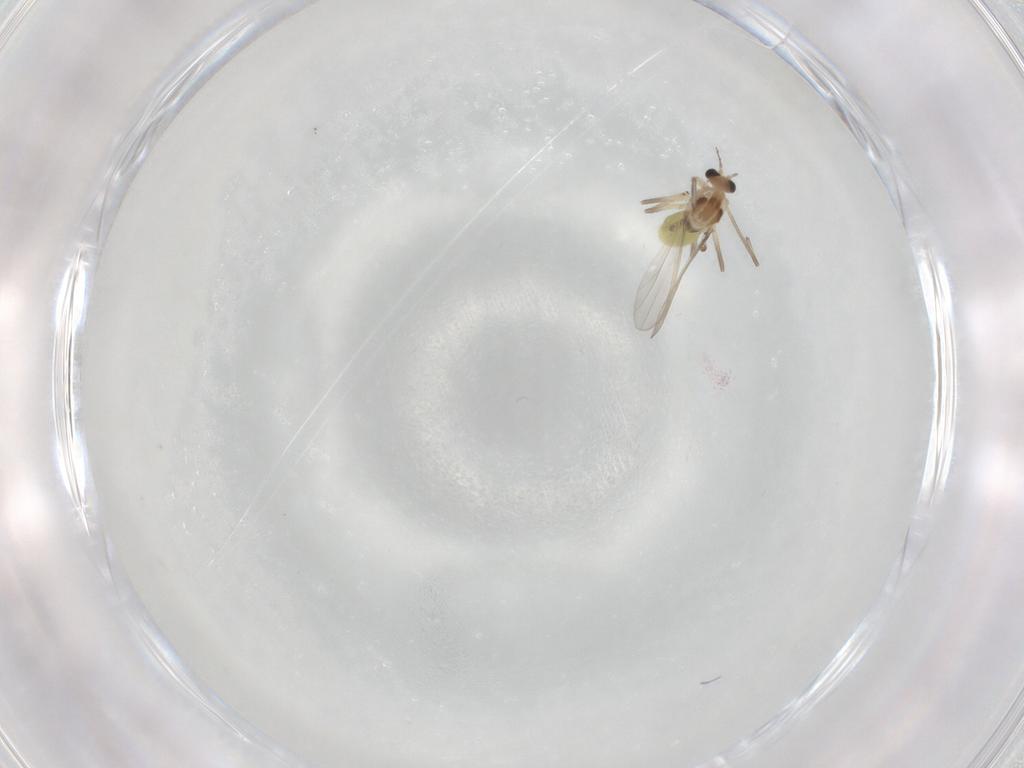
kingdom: Animalia
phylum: Arthropoda
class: Insecta
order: Diptera
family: Chironomidae
